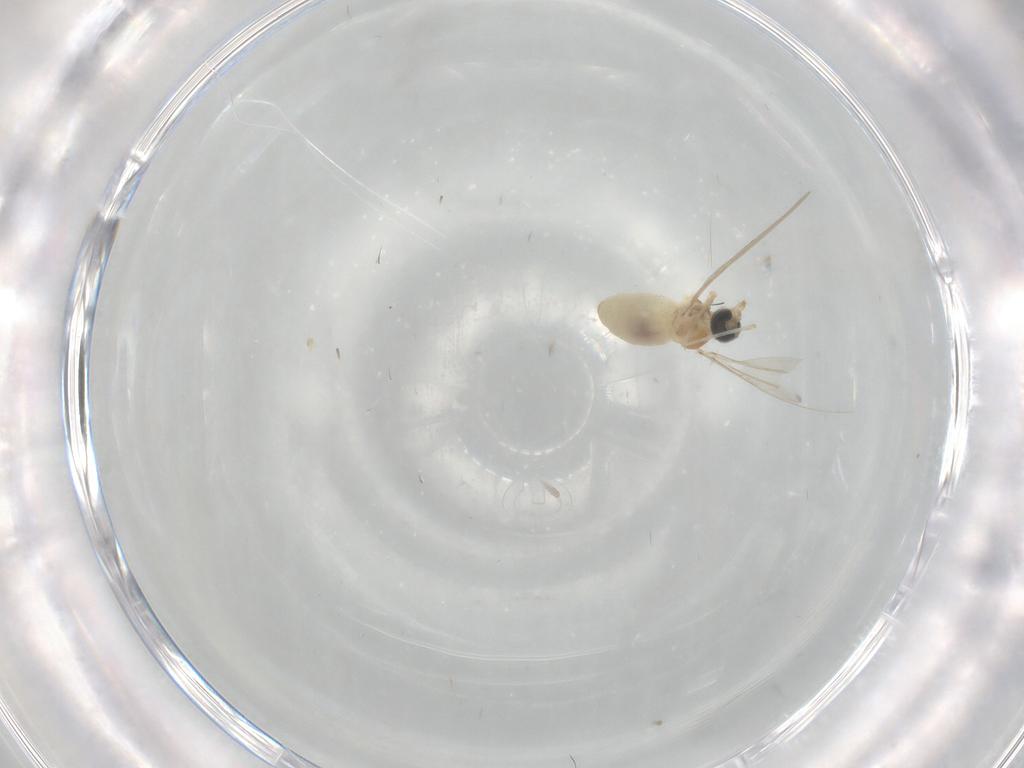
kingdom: Animalia
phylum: Arthropoda
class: Insecta
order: Diptera
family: Cecidomyiidae
